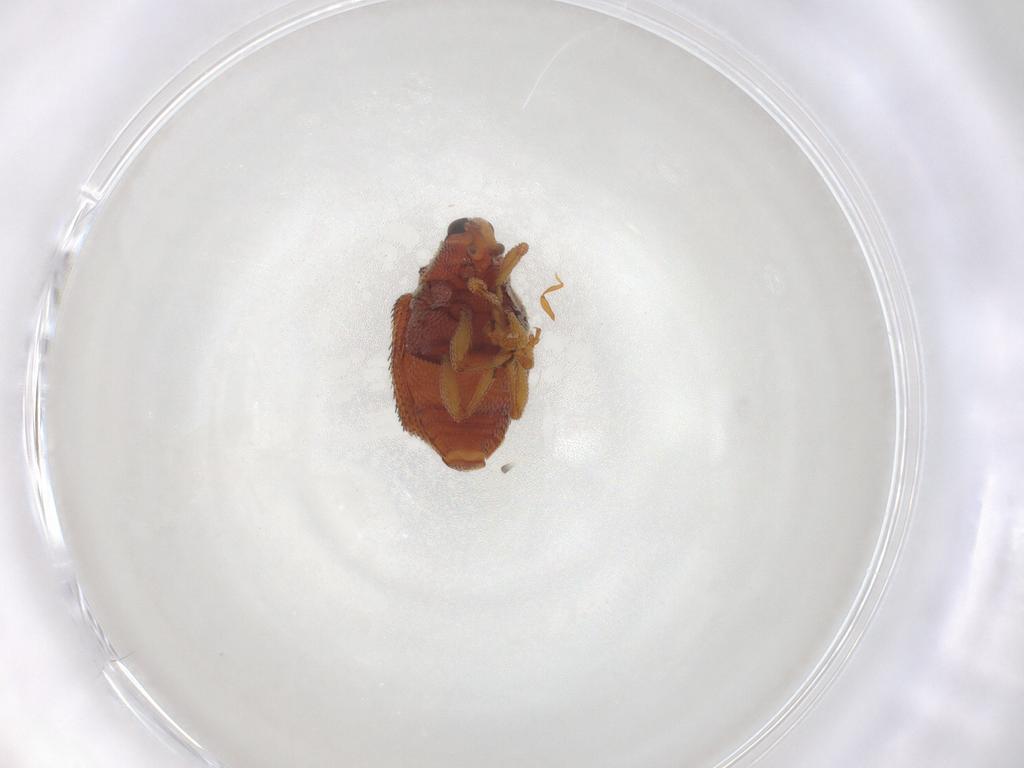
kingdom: Animalia
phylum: Arthropoda
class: Insecta
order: Coleoptera
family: Curculionidae
